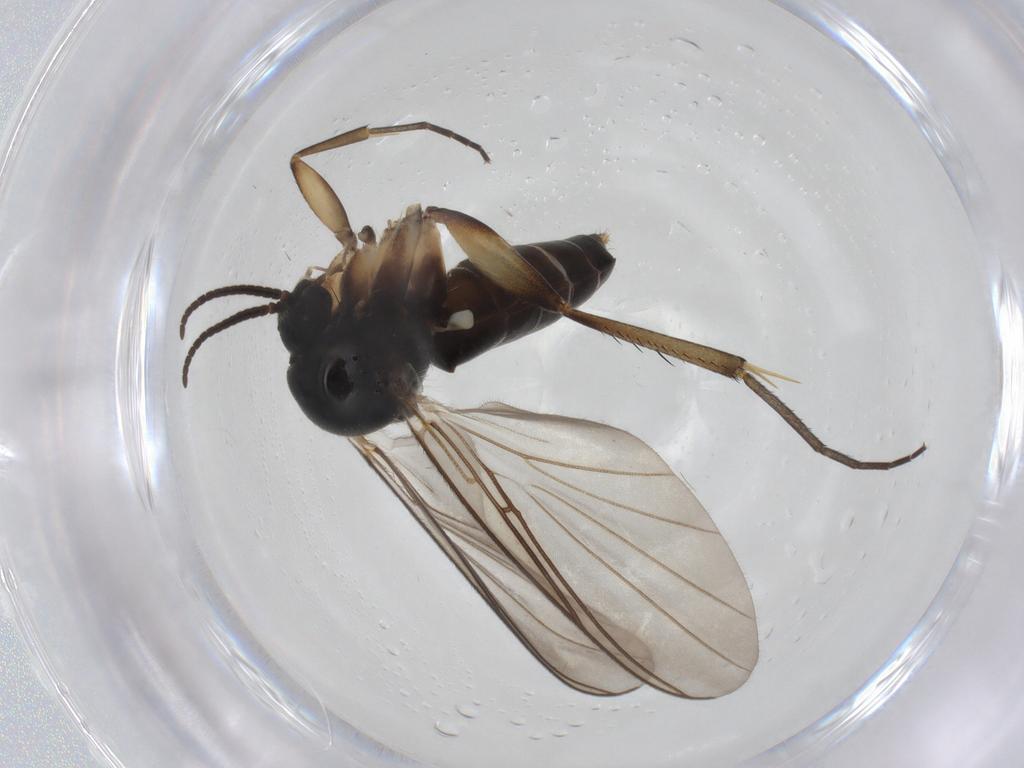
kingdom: Animalia
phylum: Arthropoda
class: Insecta
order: Diptera
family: Mycetophilidae
